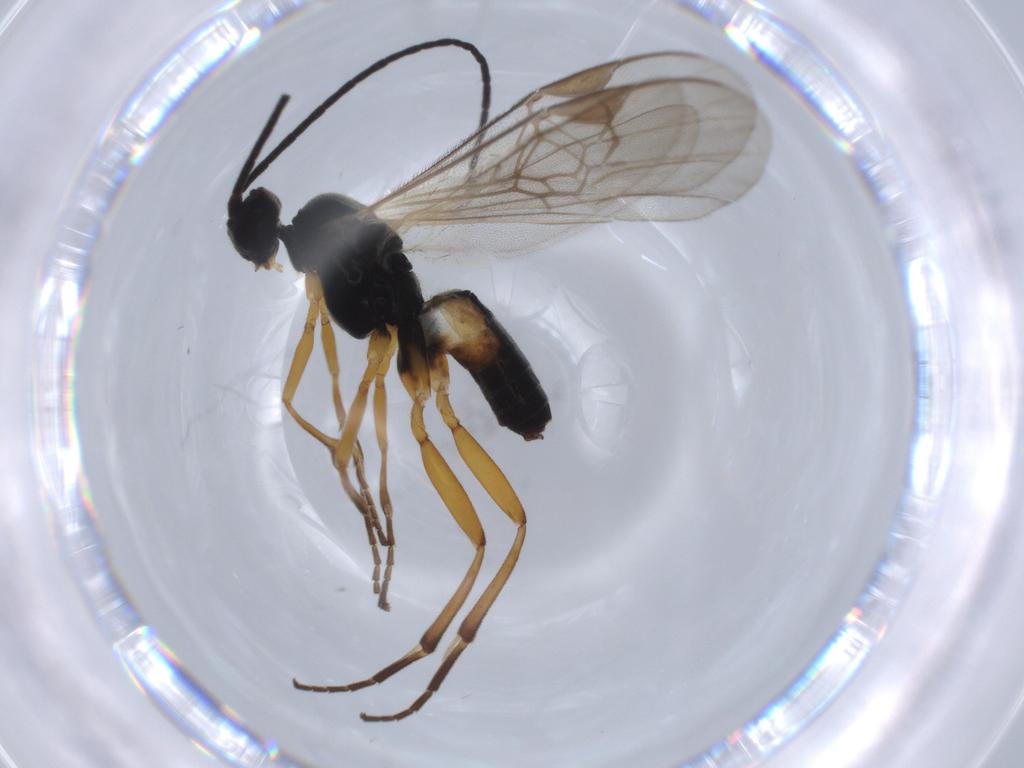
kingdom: Animalia
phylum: Arthropoda
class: Insecta
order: Hymenoptera
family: Braconidae
